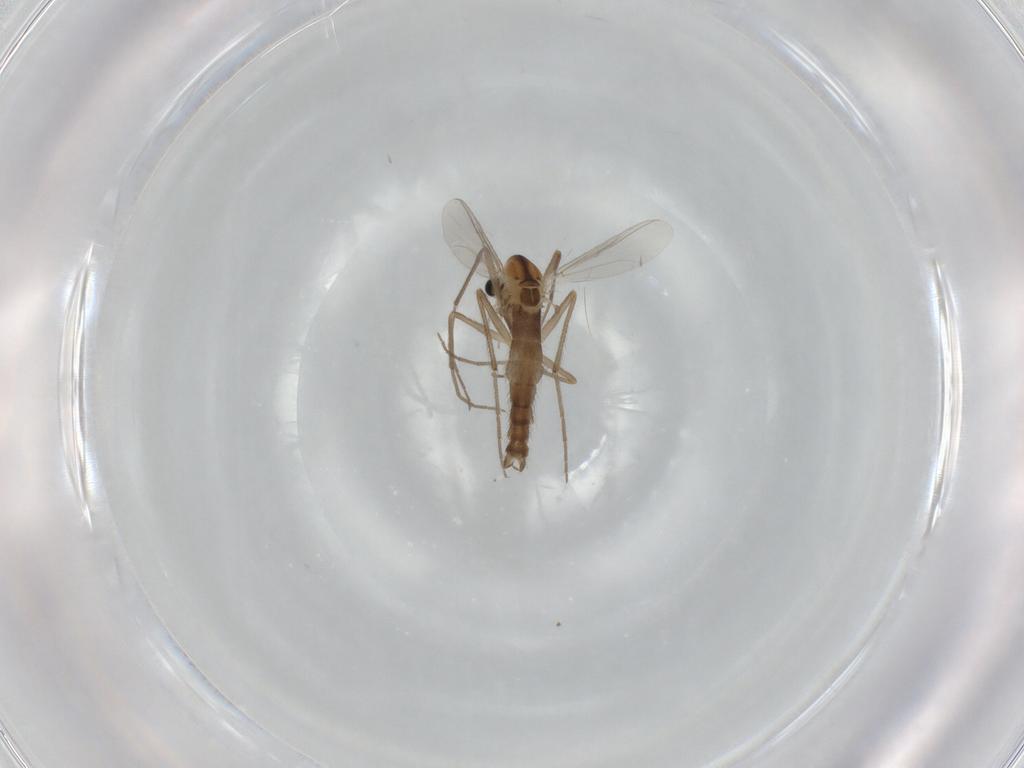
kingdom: Animalia
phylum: Arthropoda
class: Insecta
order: Diptera
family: Chironomidae
